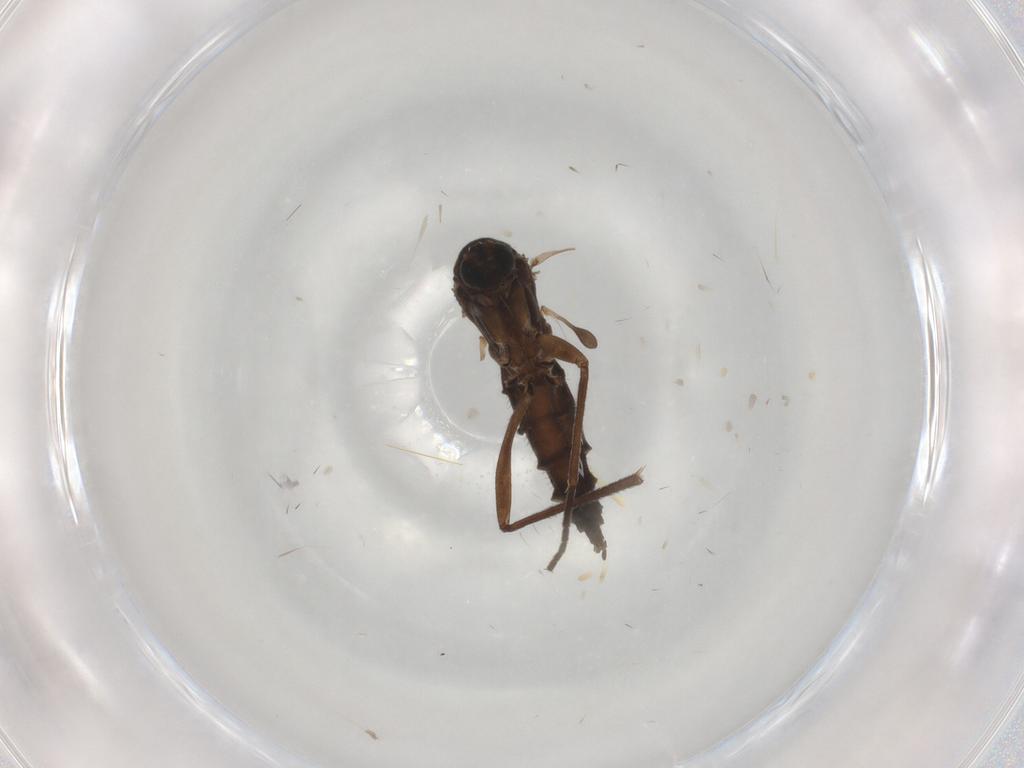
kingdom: Animalia
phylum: Arthropoda
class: Insecta
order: Diptera
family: Sciaridae
